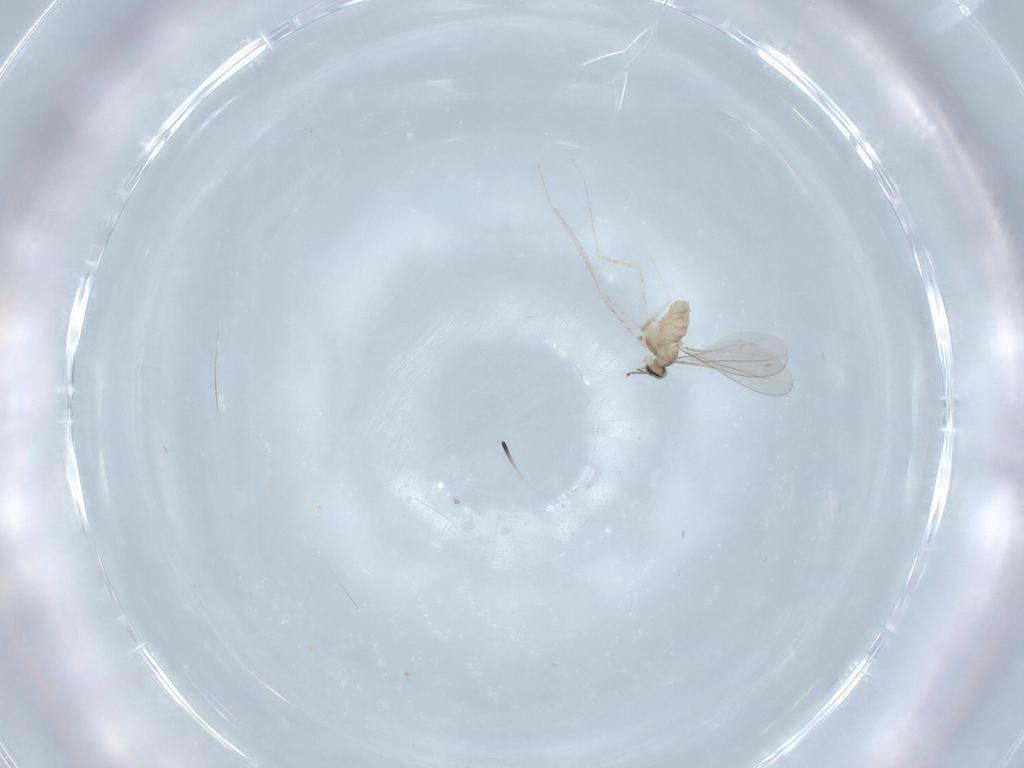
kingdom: Animalia
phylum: Arthropoda
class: Insecta
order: Diptera
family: Cecidomyiidae
